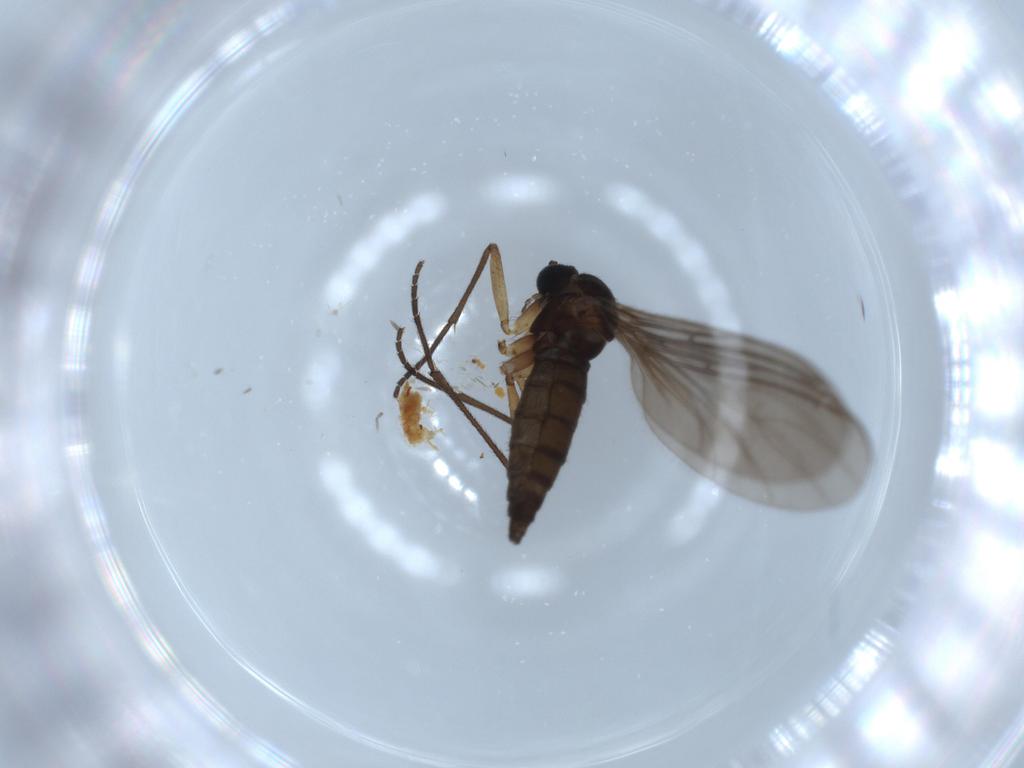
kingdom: Animalia
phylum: Arthropoda
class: Insecta
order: Diptera
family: Sciaridae
